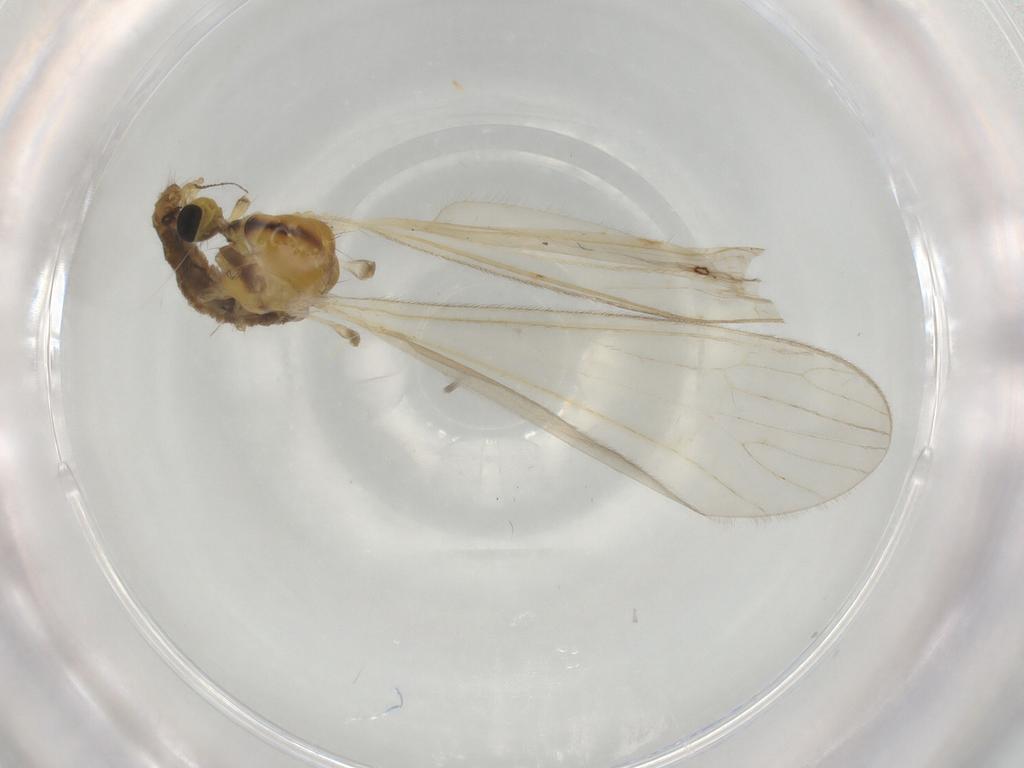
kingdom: Animalia
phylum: Arthropoda
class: Insecta
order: Diptera
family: Chironomidae
